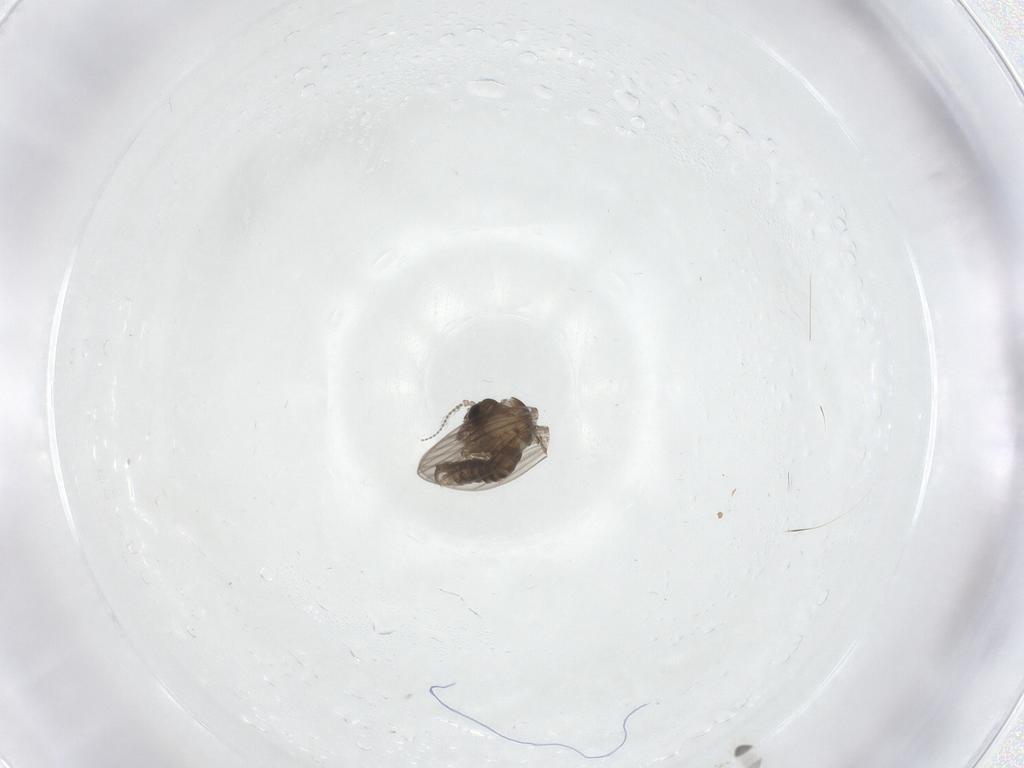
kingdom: Animalia
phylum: Arthropoda
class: Insecta
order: Diptera
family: Psychodidae
